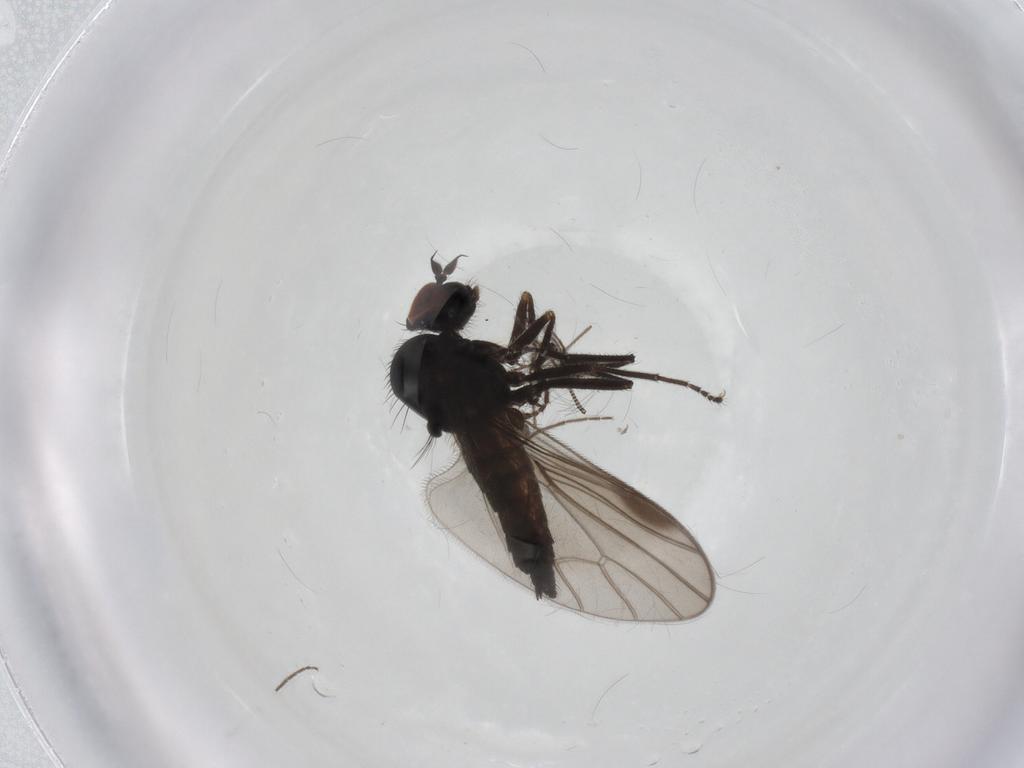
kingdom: Animalia
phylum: Arthropoda
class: Insecta
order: Diptera
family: Hybotidae
